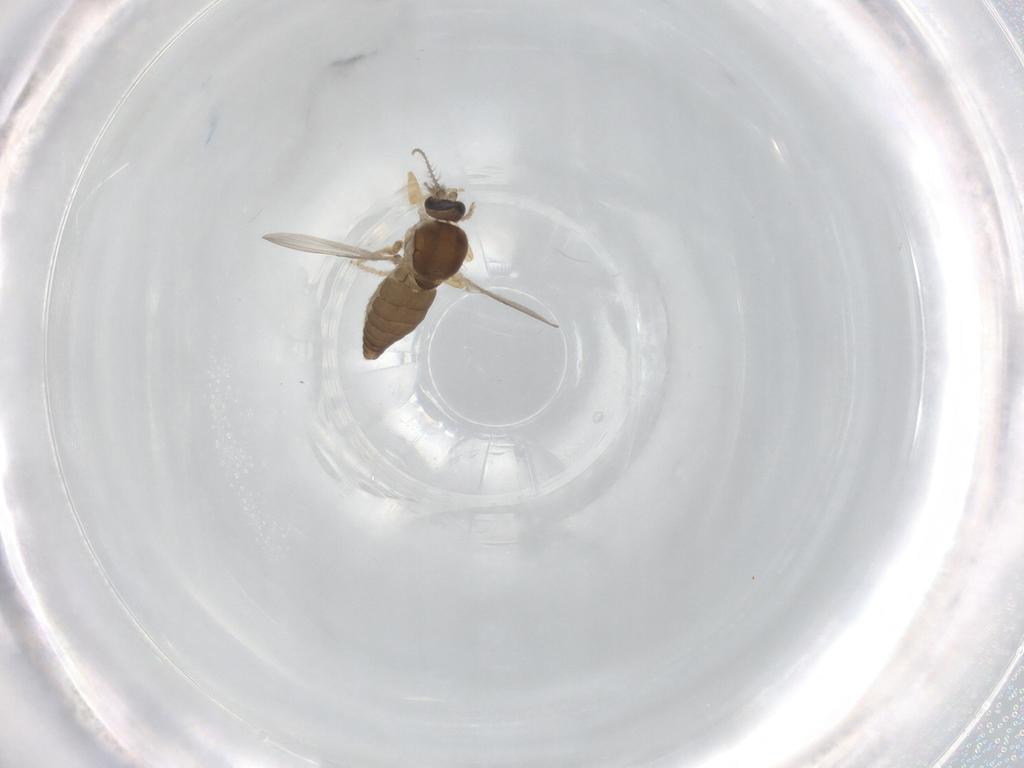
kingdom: Animalia
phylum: Arthropoda
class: Insecta
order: Diptera
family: Ceratopogonidae
